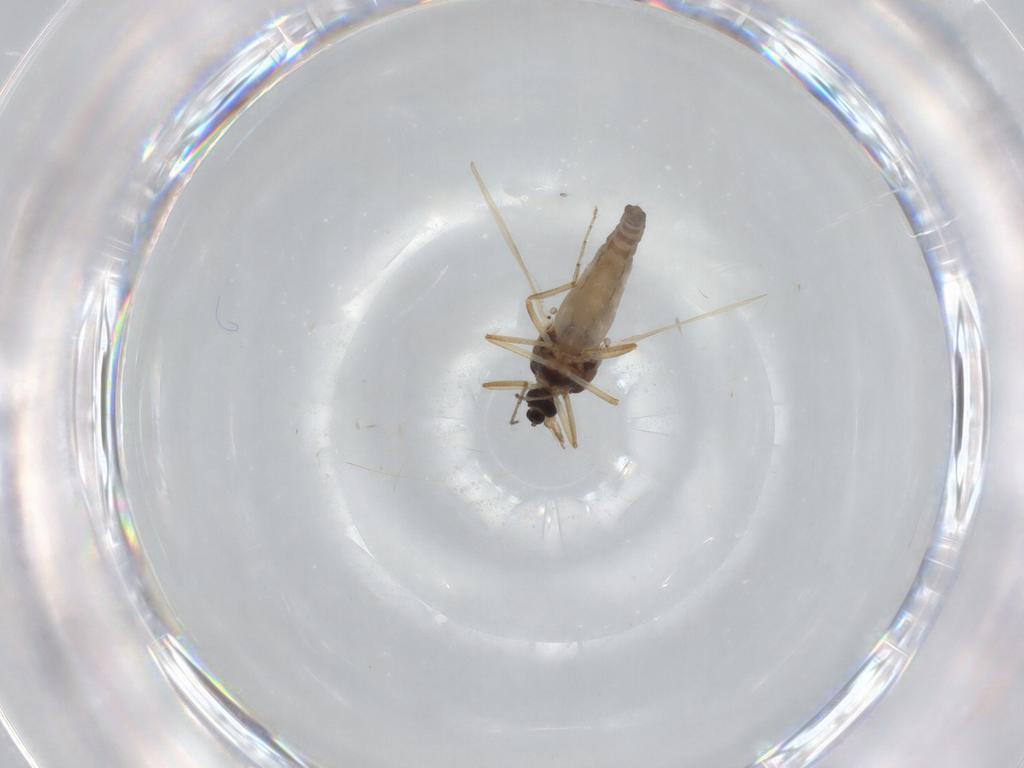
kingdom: Animalia
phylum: Arthropoda
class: Insecta
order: Diptera
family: Ceratopogonidae
